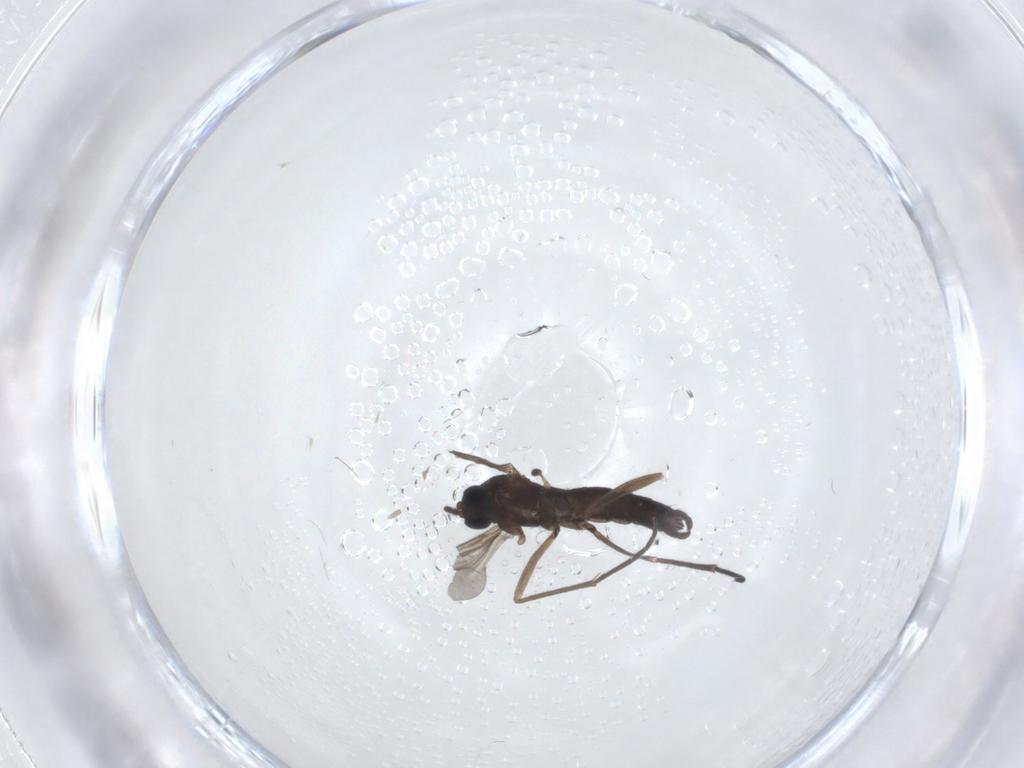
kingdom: Animalia
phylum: Arthropoda
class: Insecta
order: Diptera
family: Sciaridae
